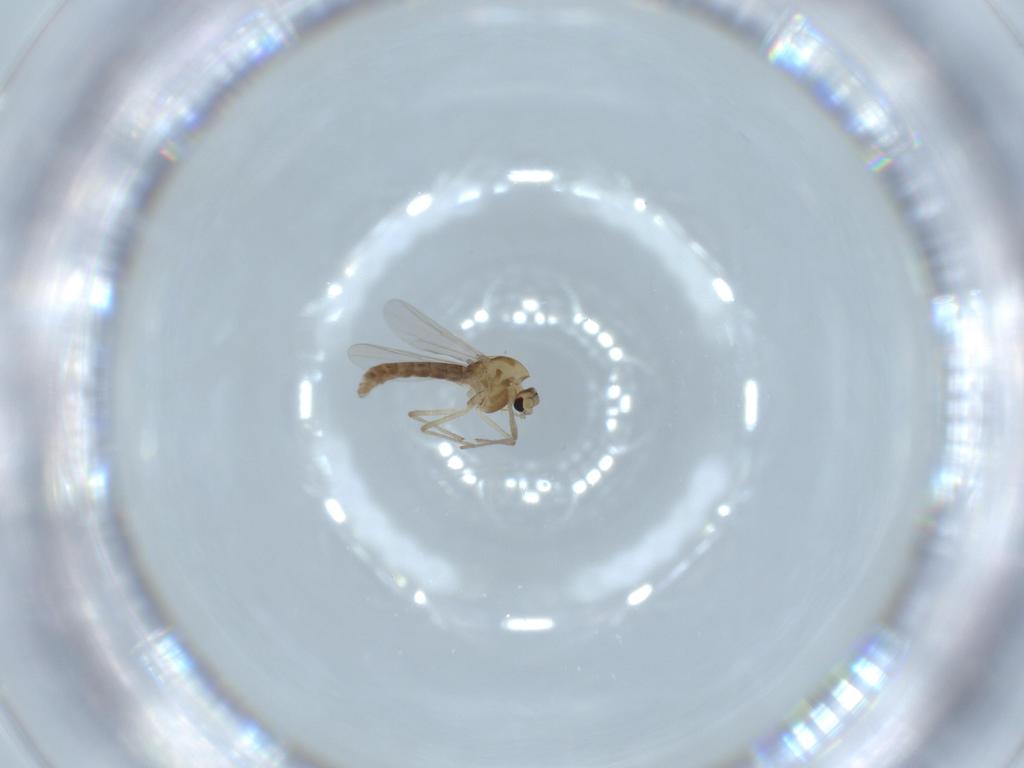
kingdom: Animalia
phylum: Arthropoda
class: Insecta
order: Diptera
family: Chironomidae
